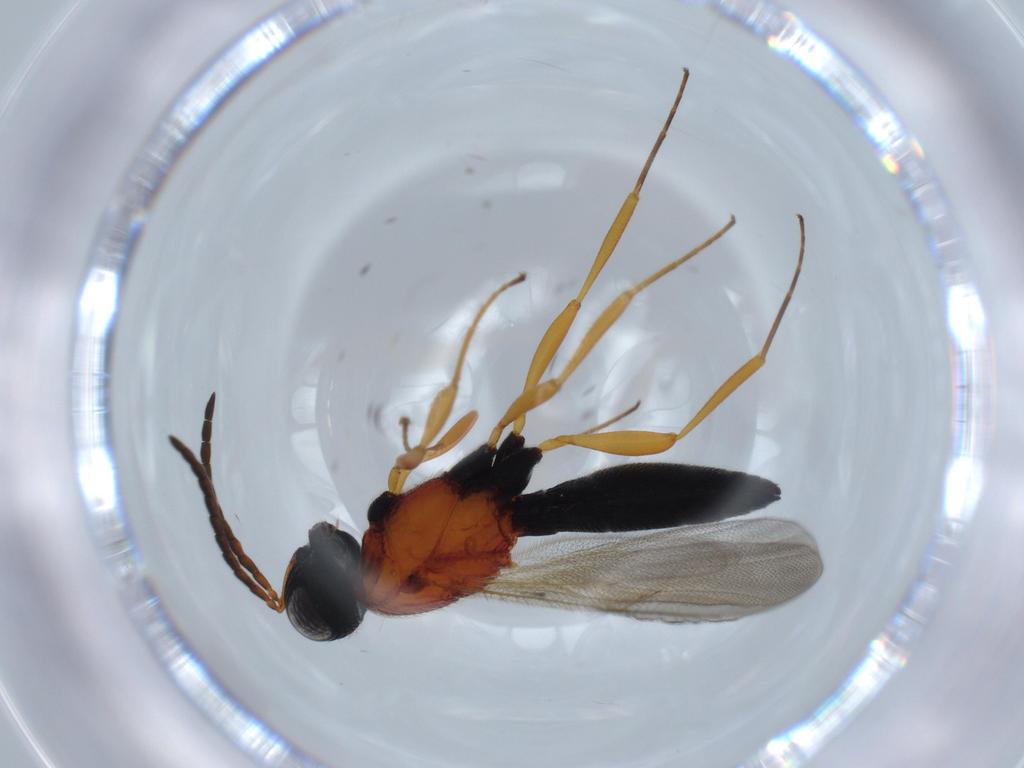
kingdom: Animalia
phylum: Arthropoda
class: Insecta
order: Hymenoptera
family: Scelionidae
